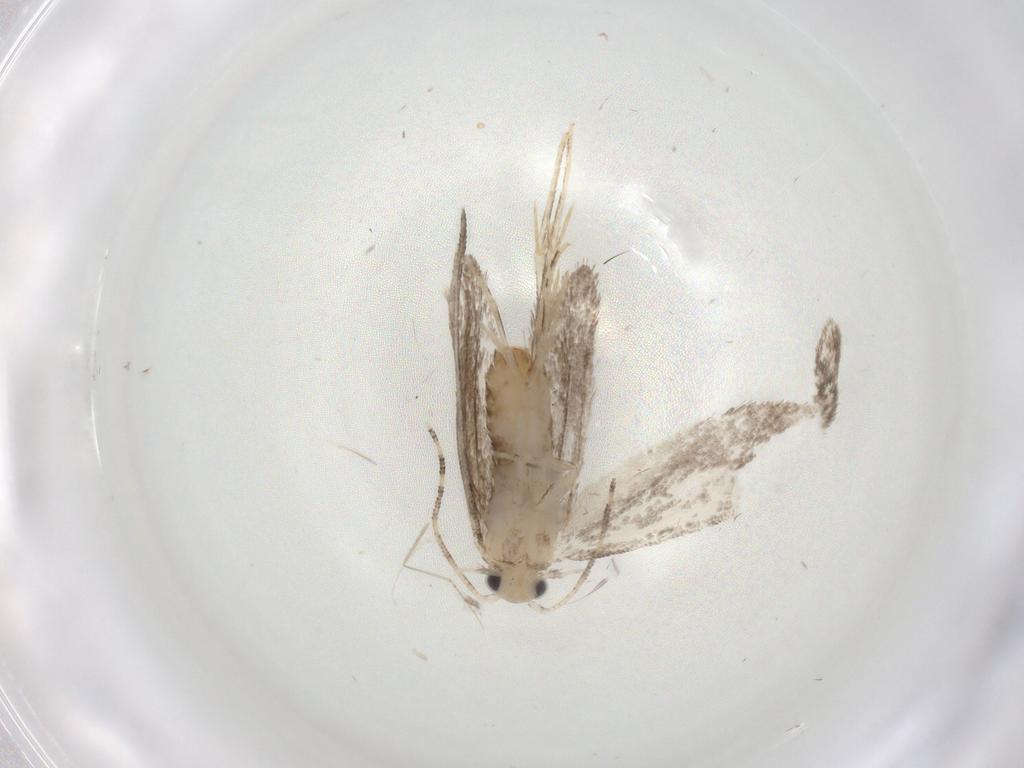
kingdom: Animalia
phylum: Arthropoda
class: Insecta
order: Lepidoptera
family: Tineidae
